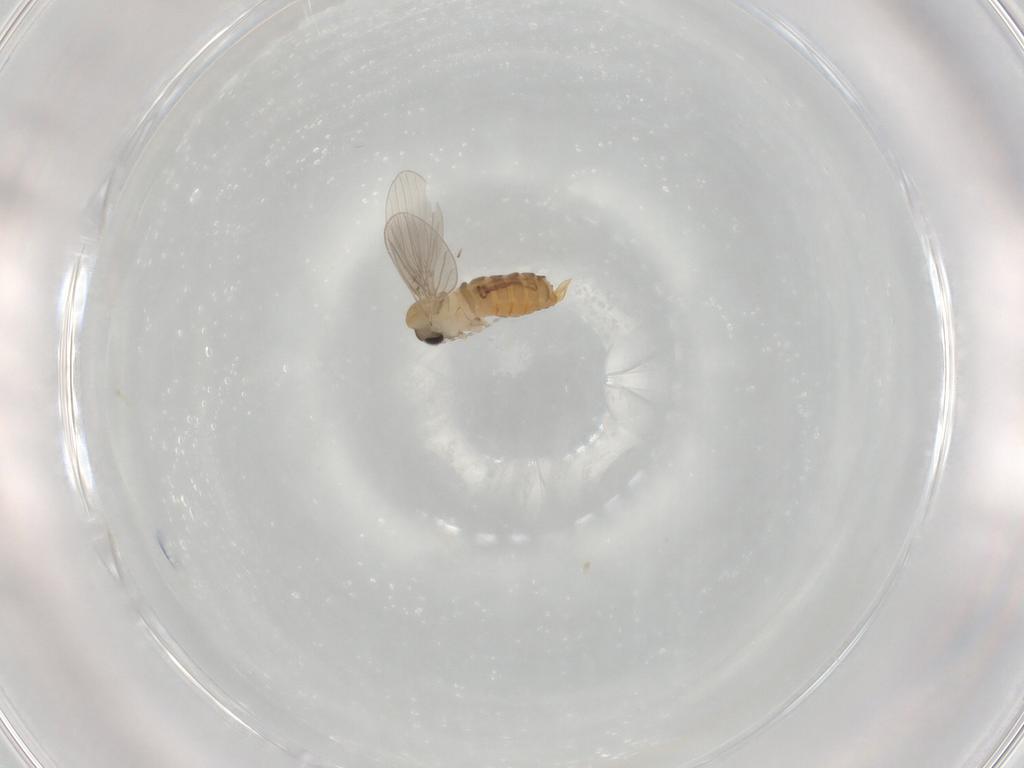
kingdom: Animalia
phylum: Arthropoda
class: Insecta
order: Diptera
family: Psychodidae
